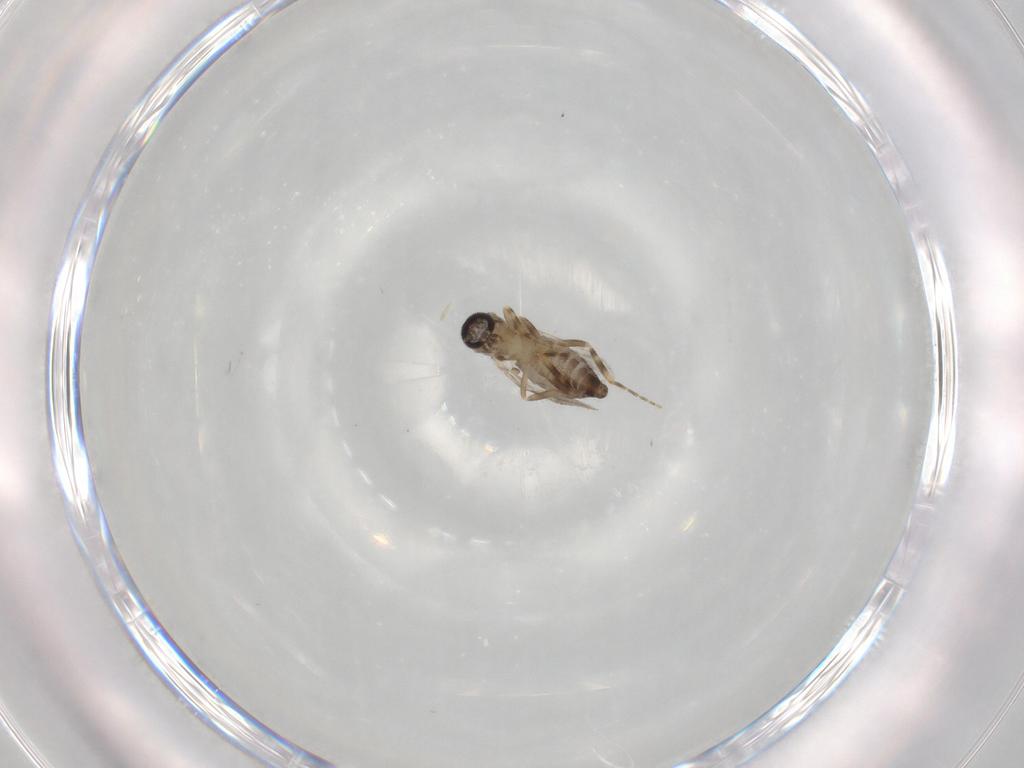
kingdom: Animalia
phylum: Arthropoda
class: Insecta
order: Diptera
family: Ceratopogonidae
